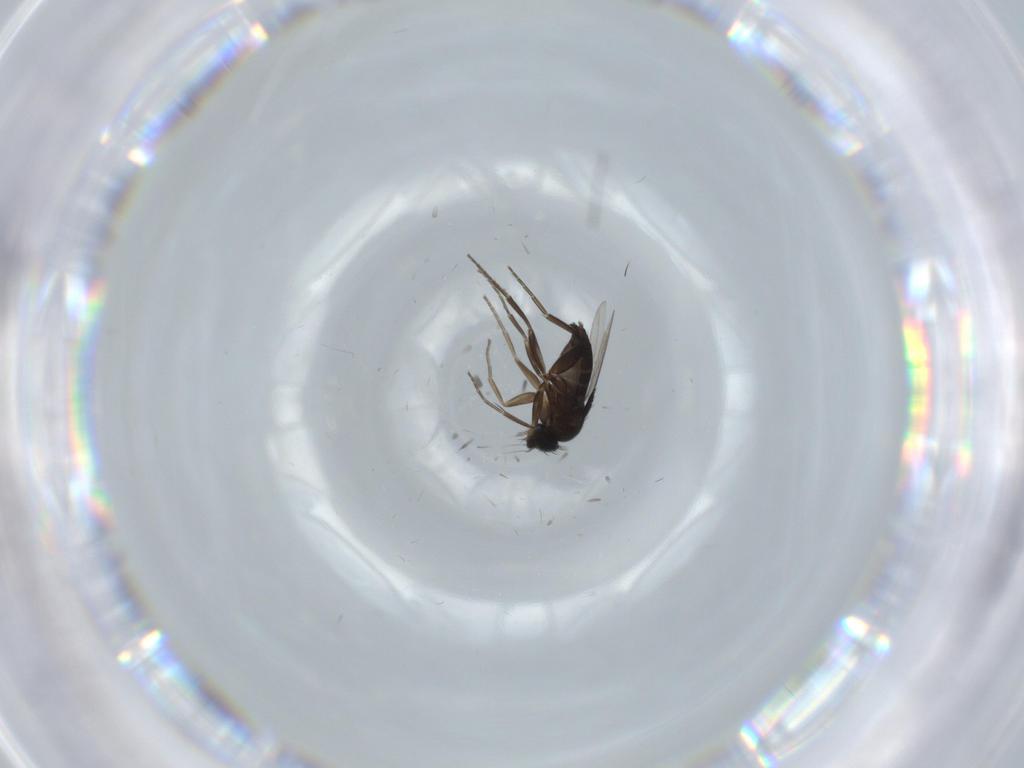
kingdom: Animalia
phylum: Arthropoda
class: Insecta
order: Diptera
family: Phoridae
